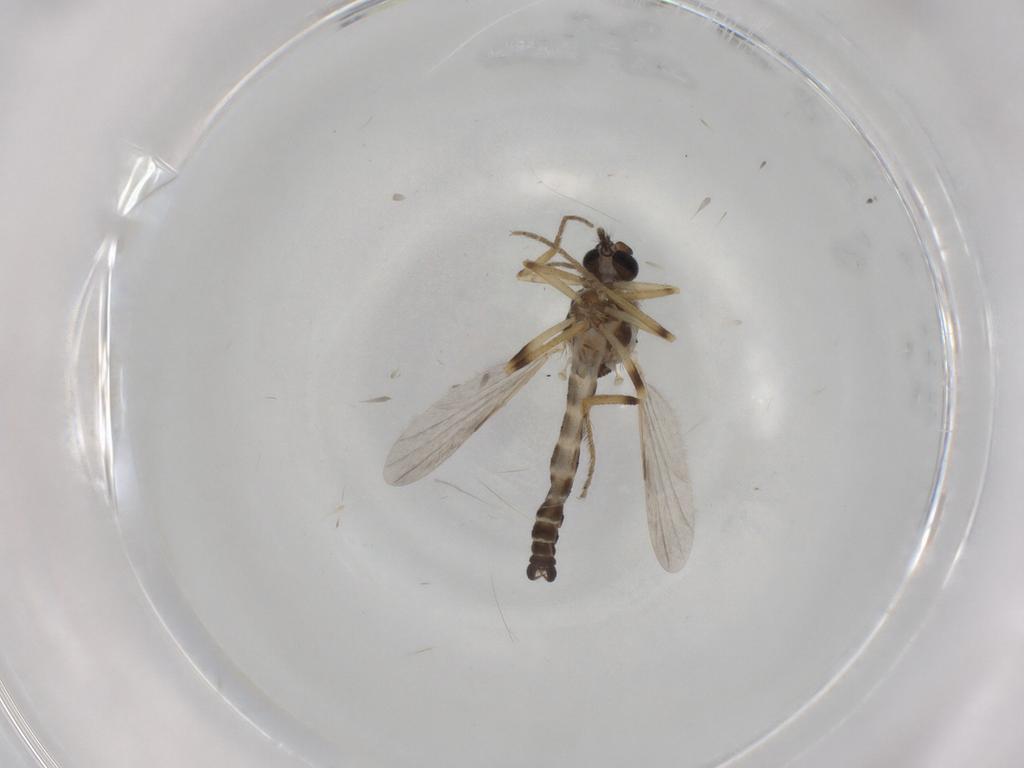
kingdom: Animalia
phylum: Arthropoda
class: Insecta
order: Diptera
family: Ceratopogonidae
